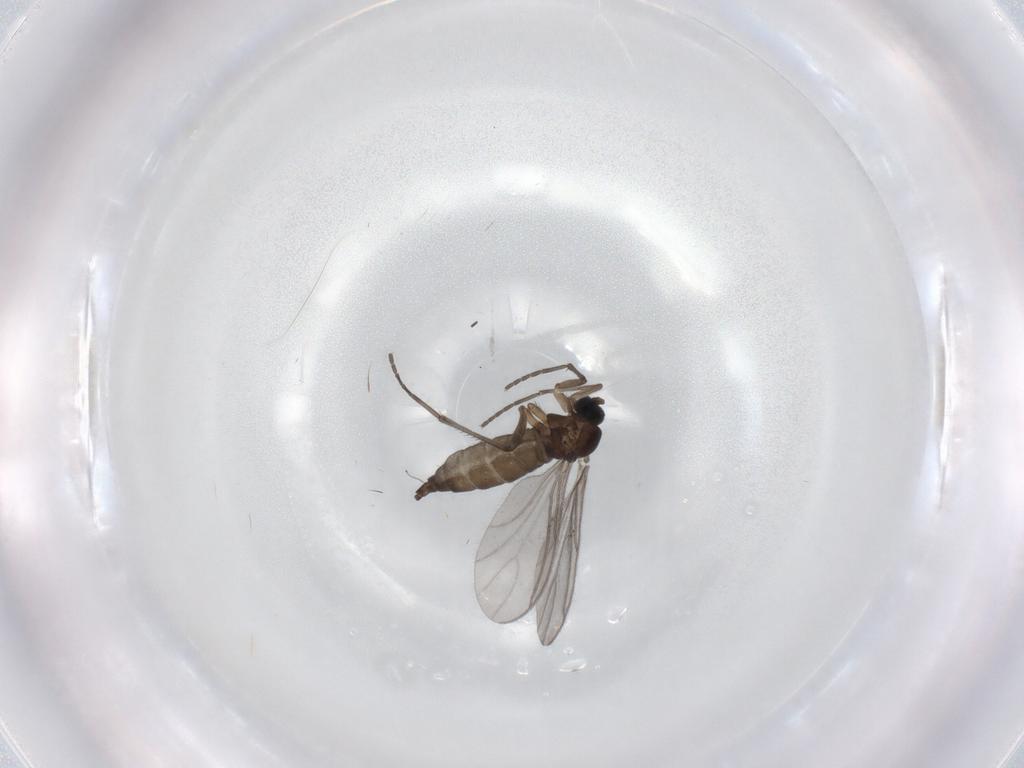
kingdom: Animalia
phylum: Arthropoda
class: Insecta
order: Diptera
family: Sciaridae
